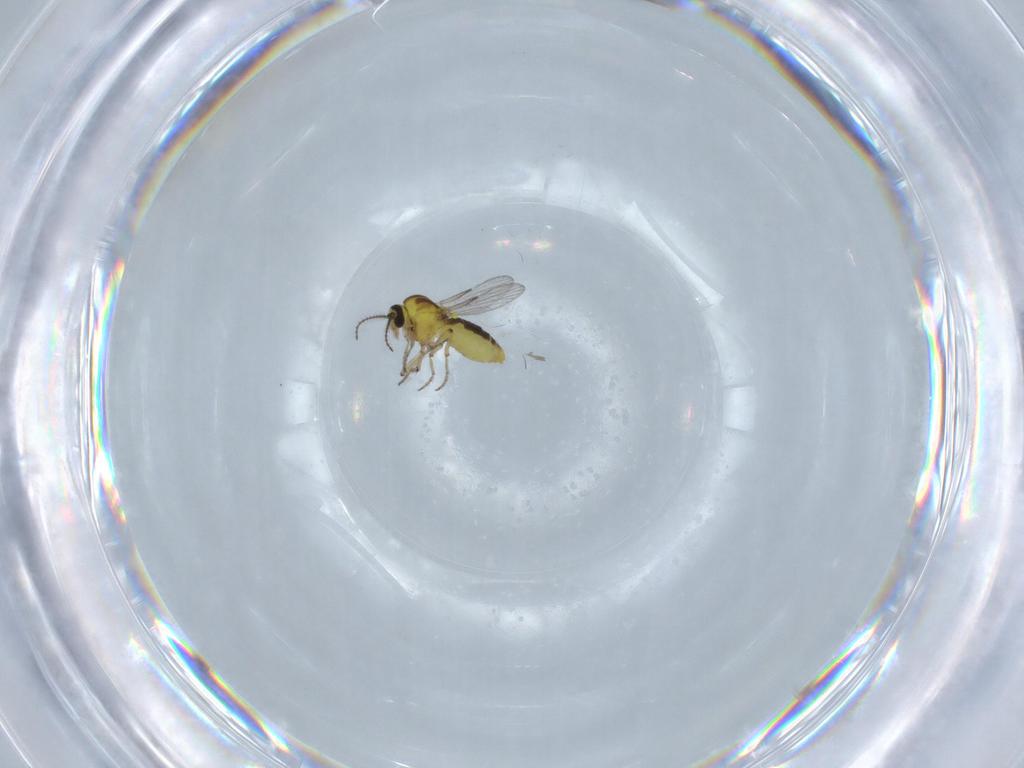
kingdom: Animalia
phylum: Arthropoda
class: Insecta
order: Diptera
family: Ceratopogonidae
